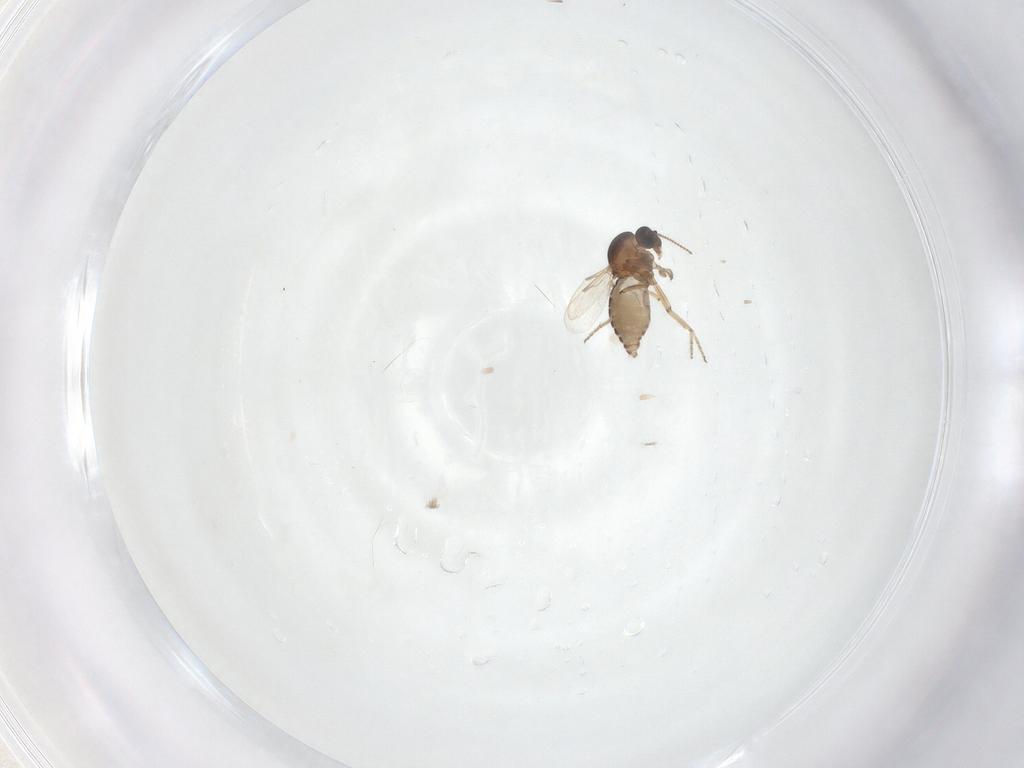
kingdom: Animalia
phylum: Arthropoda
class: Insecta
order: Diptera
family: Ceratopogonidae
